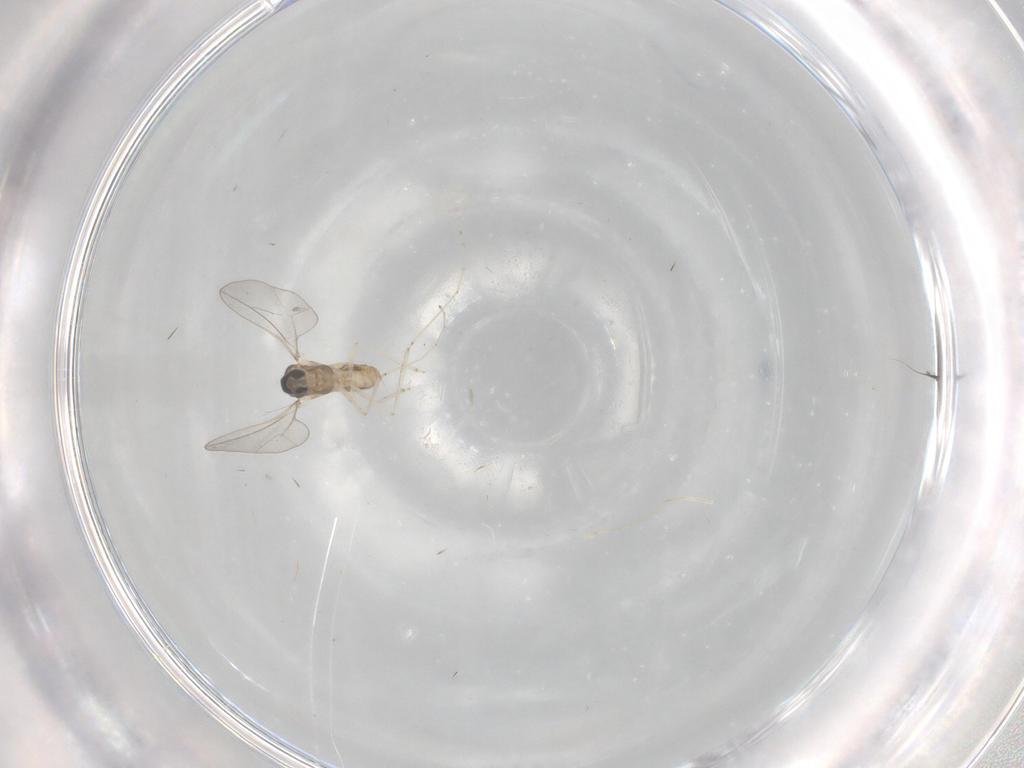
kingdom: Animalia
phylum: Arthropoda
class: Insecta
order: Diptera
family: Cecidomyiidae
